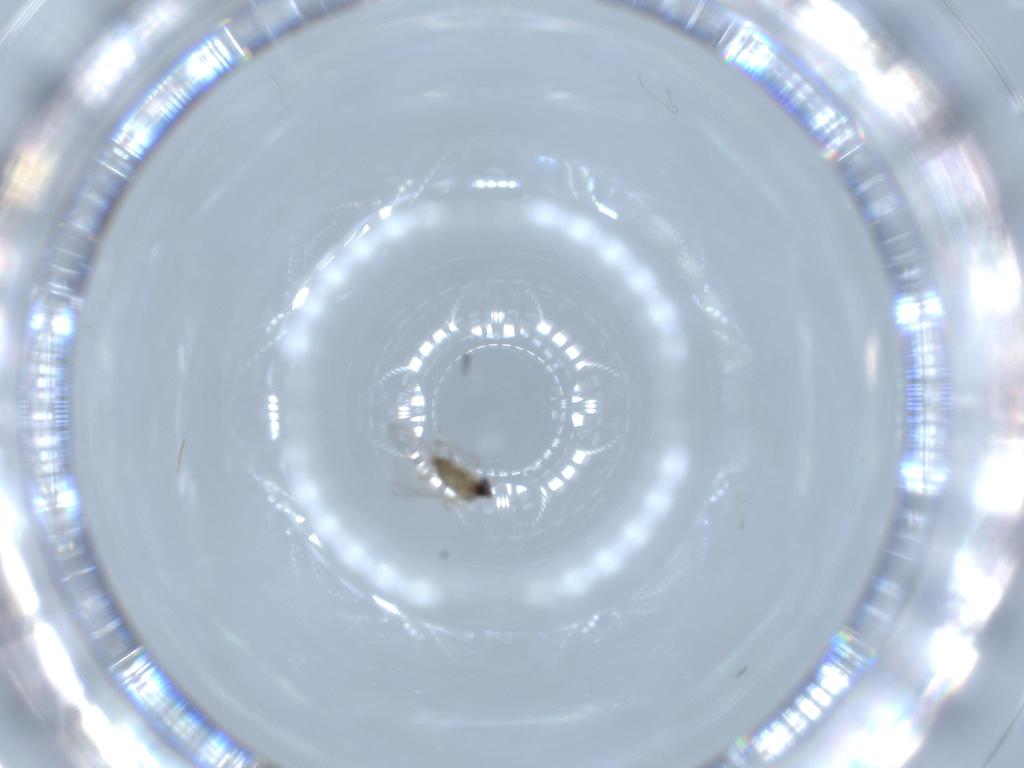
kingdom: Animalia
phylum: Arthropoda
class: Insecta
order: Diptera
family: Cecidomyiidae
